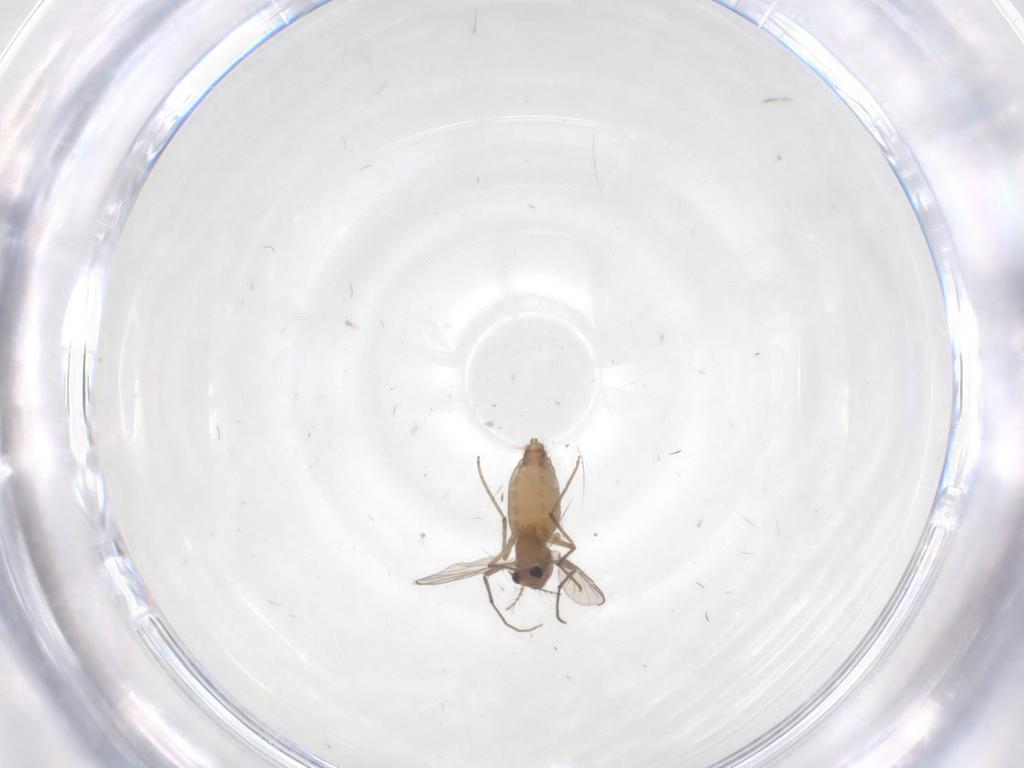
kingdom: Animalia
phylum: Arthropoda
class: Insecta
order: Diptera
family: Chironomidae
